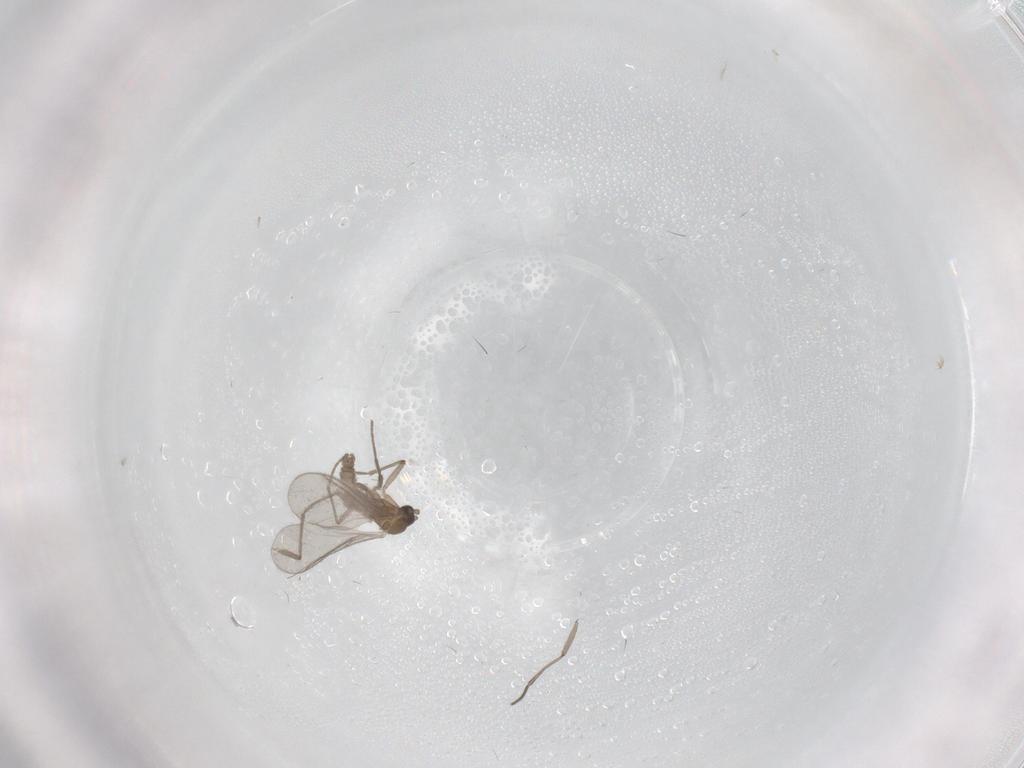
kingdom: Animalia
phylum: Arthropoda
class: Insecta
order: Diptera
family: Sciaridae
